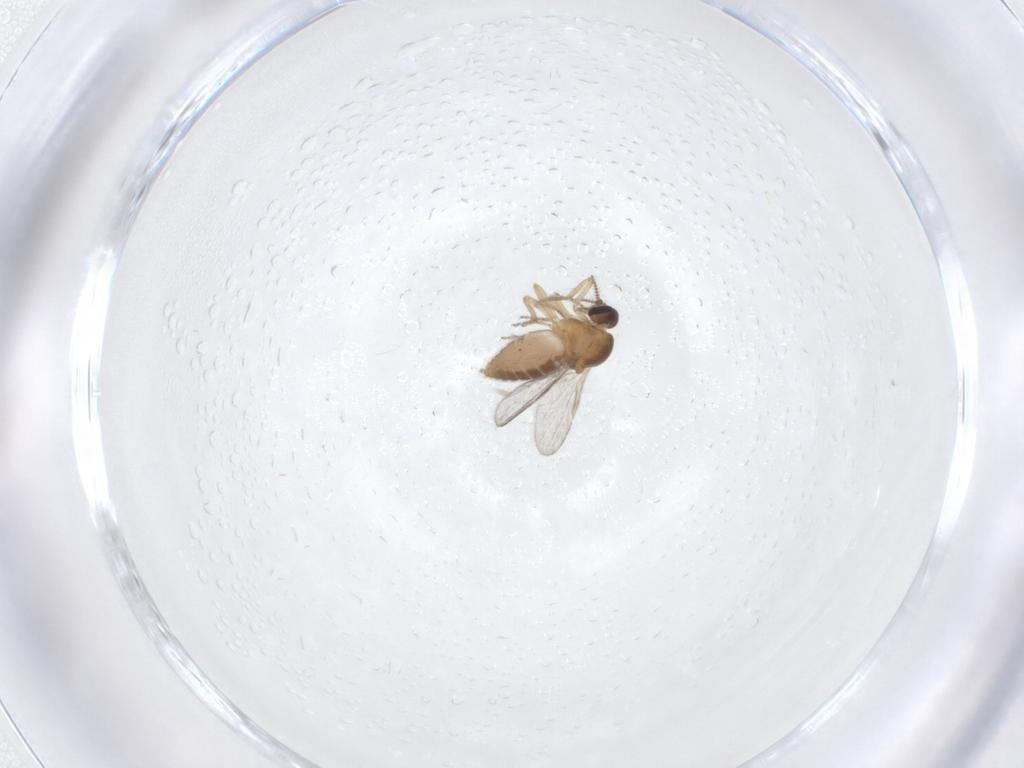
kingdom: Animalia
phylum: Arthropoda
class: Insecta
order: Diptera
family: Ceratopogonidae
